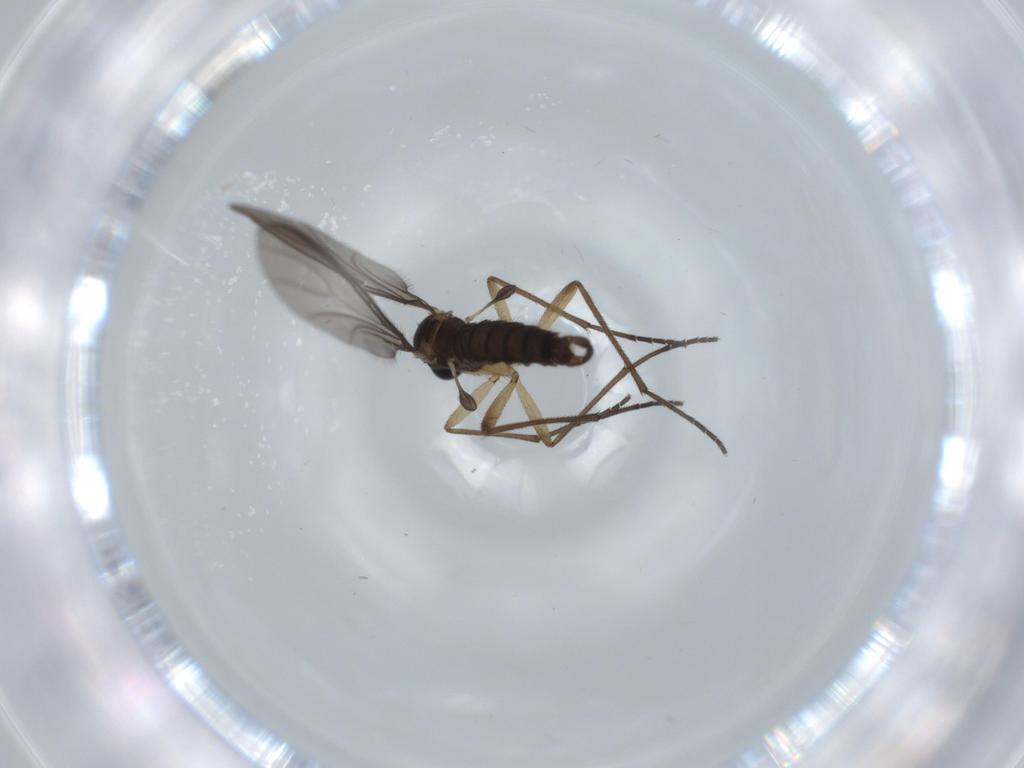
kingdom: Animalia
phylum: Arthropoda
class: Insecta
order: Diptera
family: Sciaridae
